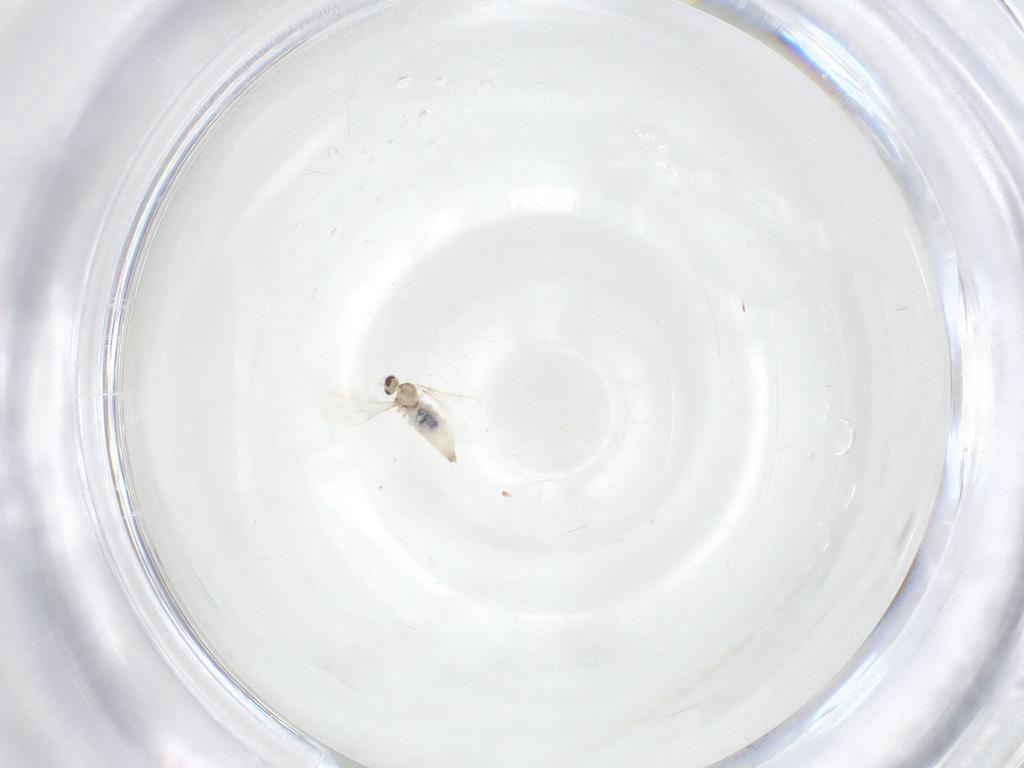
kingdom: Animalia
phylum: Arthropoda
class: Insecta
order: Diptera
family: Cecidomyiidae
